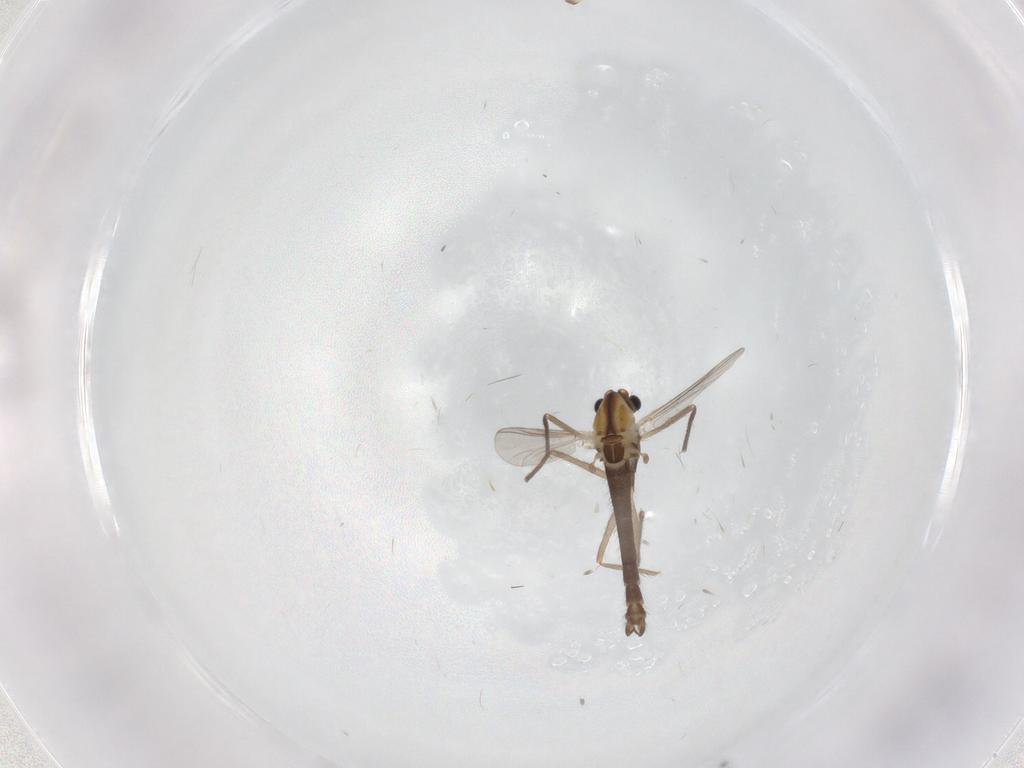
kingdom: Animalia
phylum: Arthropoda
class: Insecta
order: Diptera
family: Chironomidae
